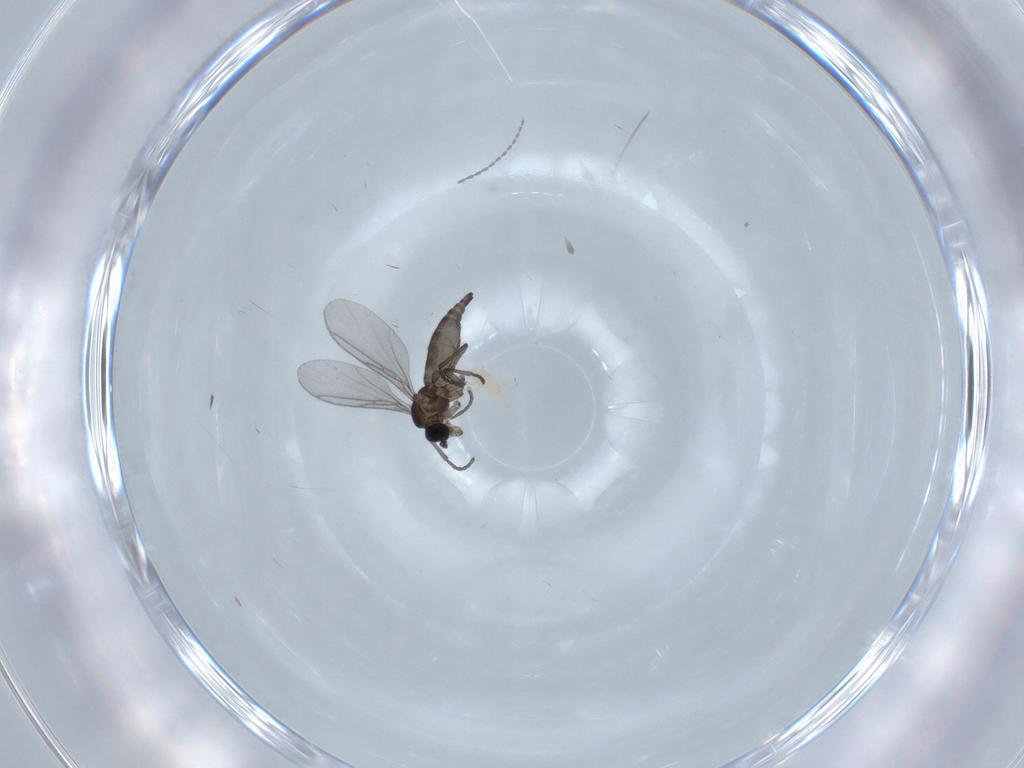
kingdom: Animalia
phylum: Arthropoda
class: Insecta
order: Diptera
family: Cecidomyiidae
